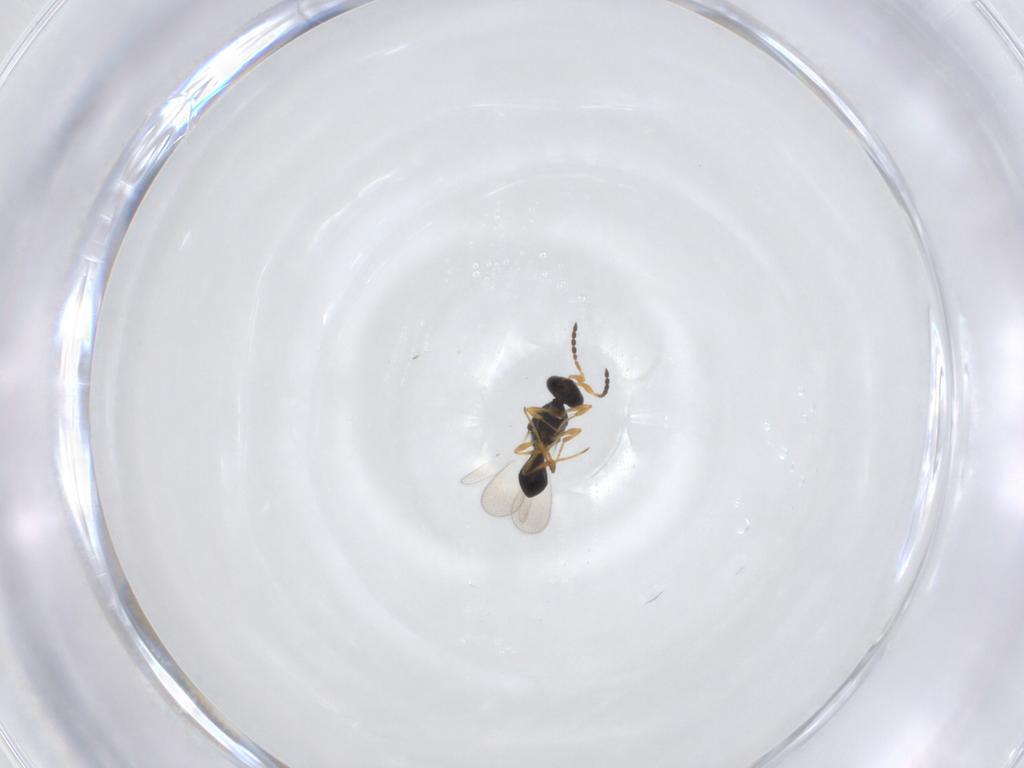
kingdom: Animalia
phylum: Arthropoda
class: Insecta
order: Hymenoptera
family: Platygastridae
